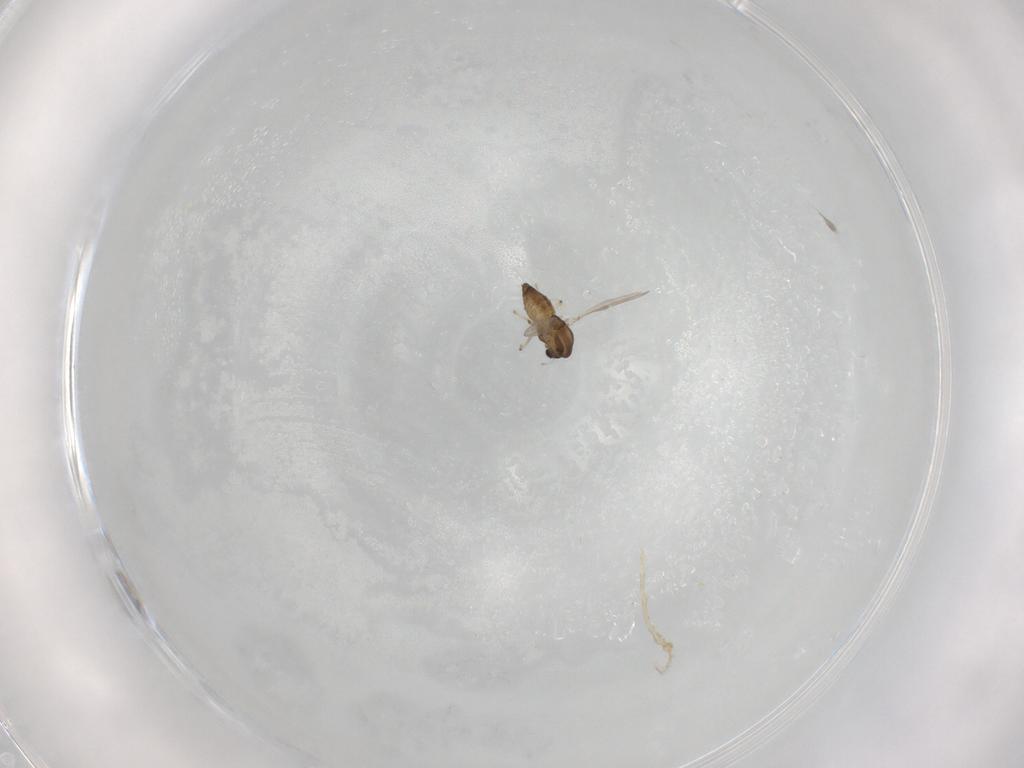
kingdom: Animalia
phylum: Arthropoda
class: Insecta
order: Diptera
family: Chironomidae
